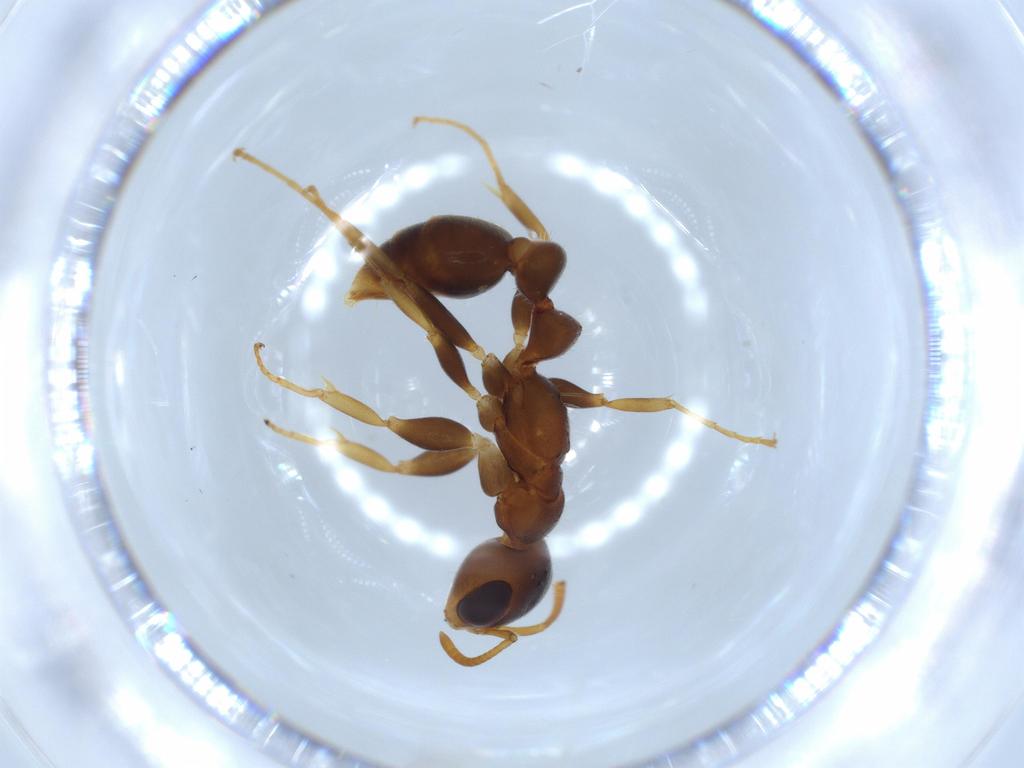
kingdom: Animalia
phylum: Arthropoda
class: Insecta
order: Hymenoptera
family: Formicidae
